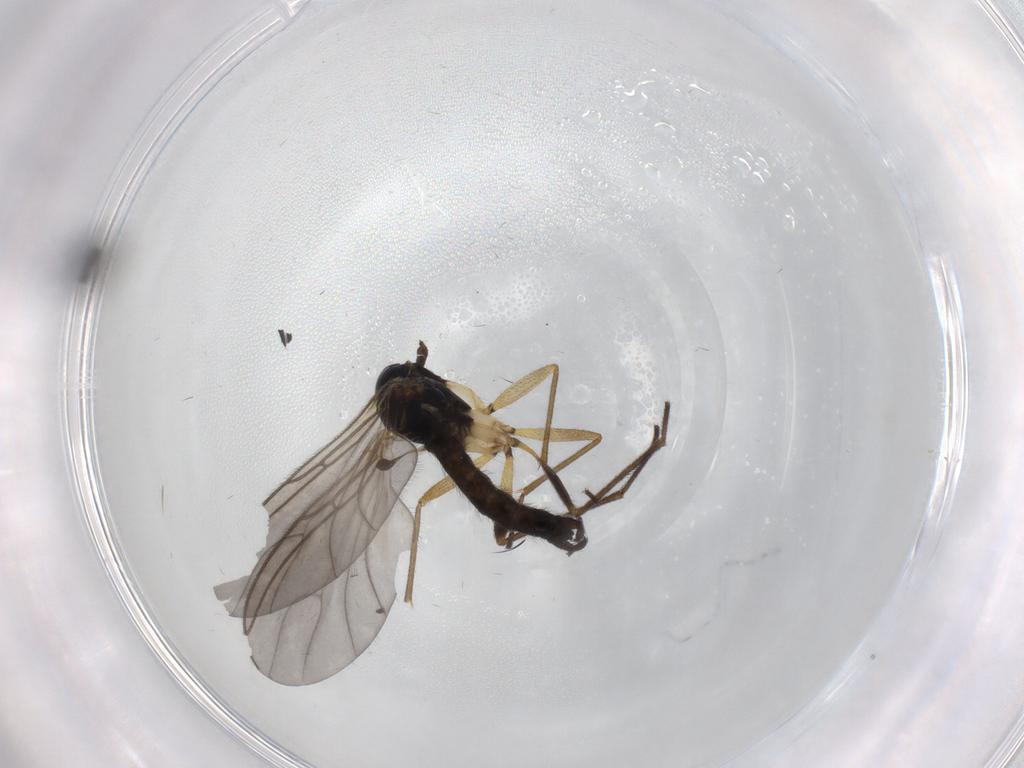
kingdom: Animalia
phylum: Arthropoda
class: Insecta
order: Diptera
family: Sciaridae
